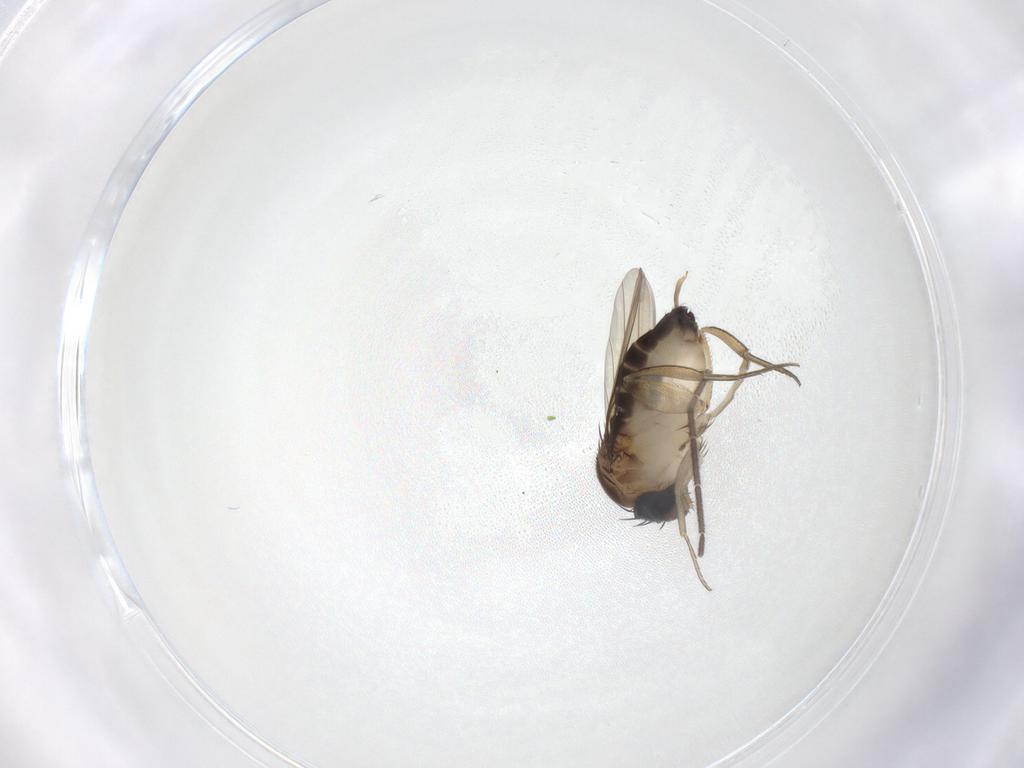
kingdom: Animalia
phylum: Arthropoda
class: Insecta
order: Diptera
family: Phoridae
